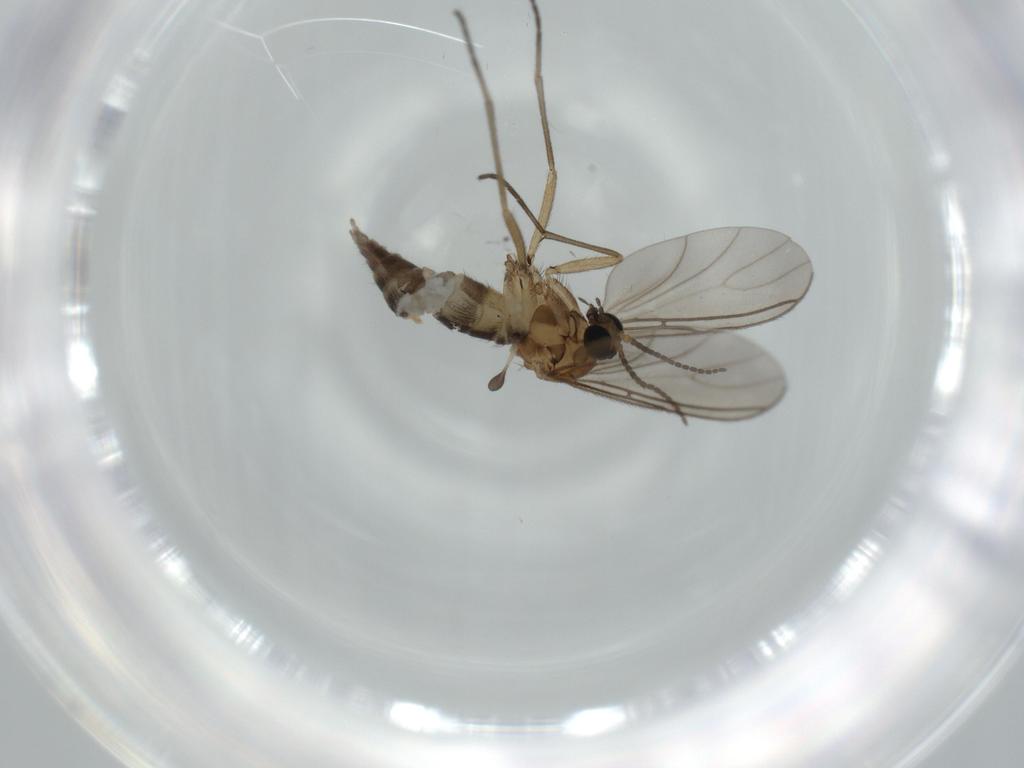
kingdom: Animalia
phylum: Arthropoda
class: Insecta
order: Diptera
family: Sciaridae
